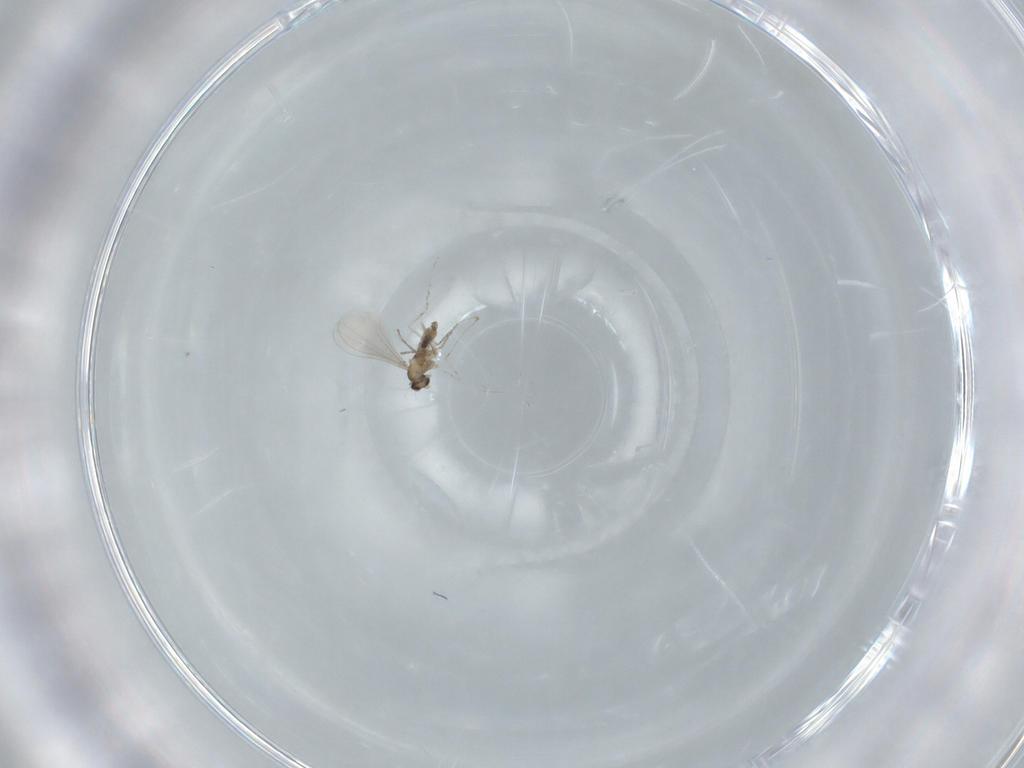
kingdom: Animalia
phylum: Arthropoda
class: Insecta
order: Diptera
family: Cecidomyiidae
